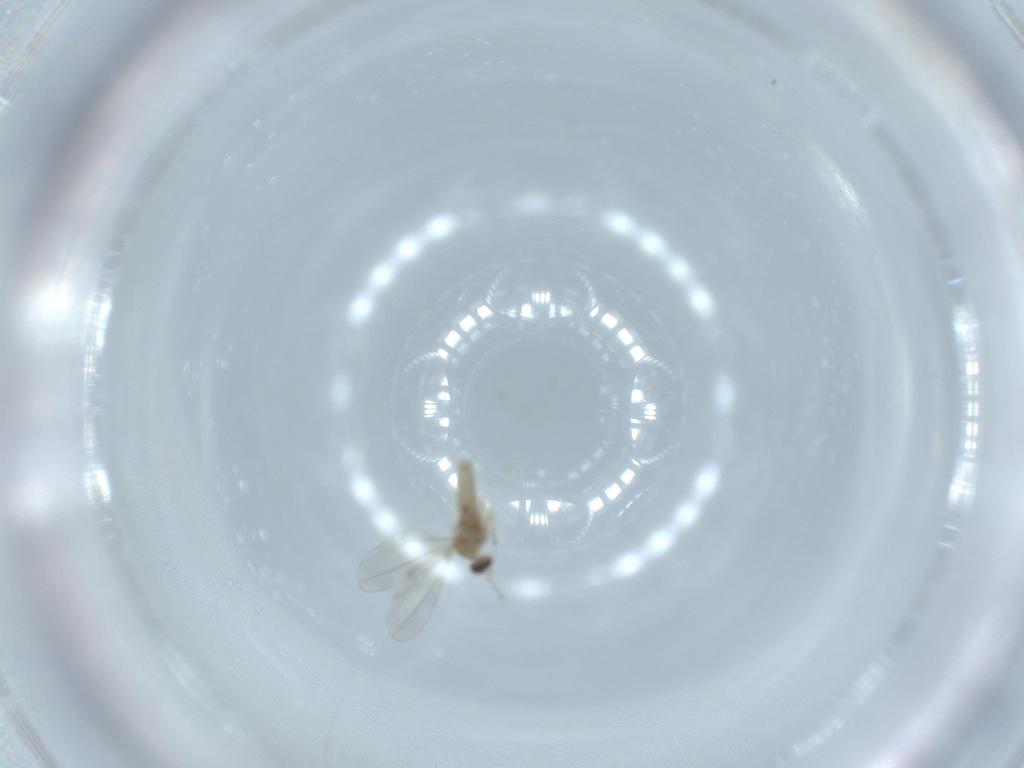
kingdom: Animalia
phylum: Arthropoda
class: Insecta
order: Diptera
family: Cecidomyiidae
